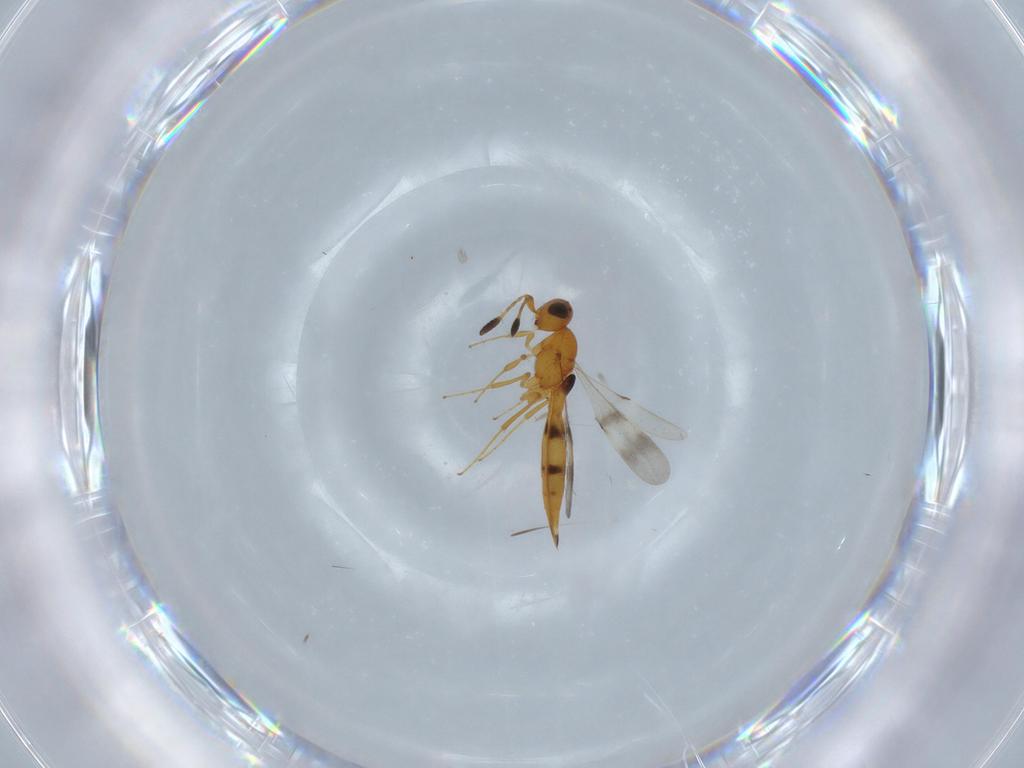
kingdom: Animalia
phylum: Arthropoda
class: Insecta
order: Hymenoptera
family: Scelionidae
